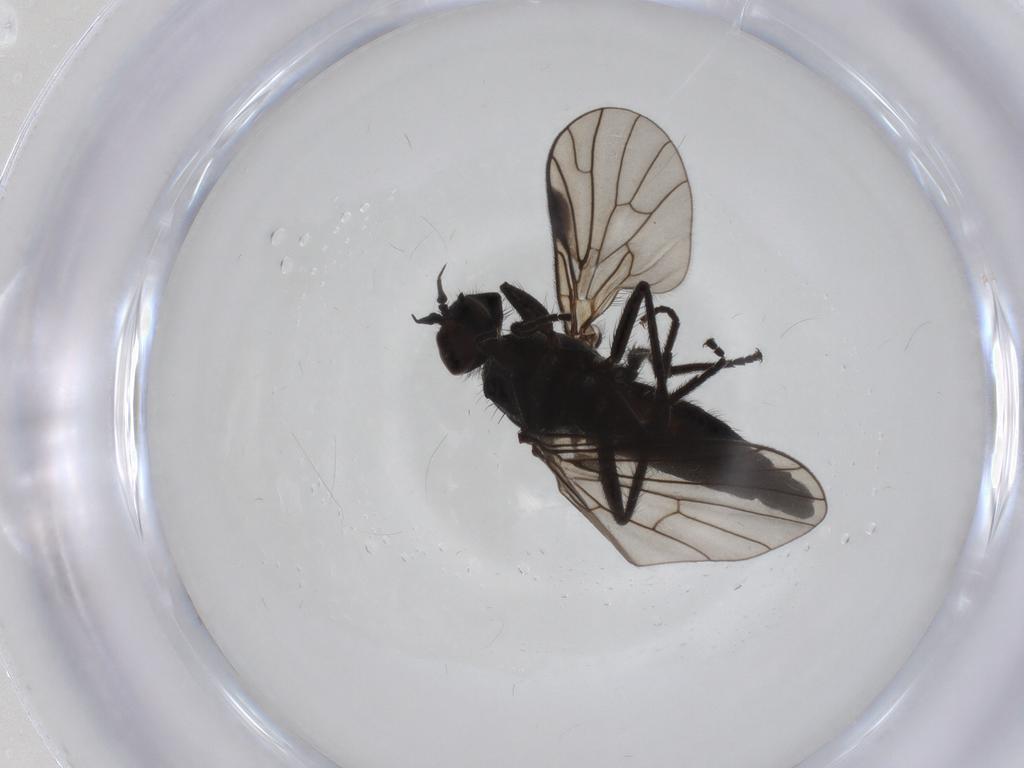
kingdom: Animalia
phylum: Arthropoda
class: Insecta
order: Diptera
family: Empididae
